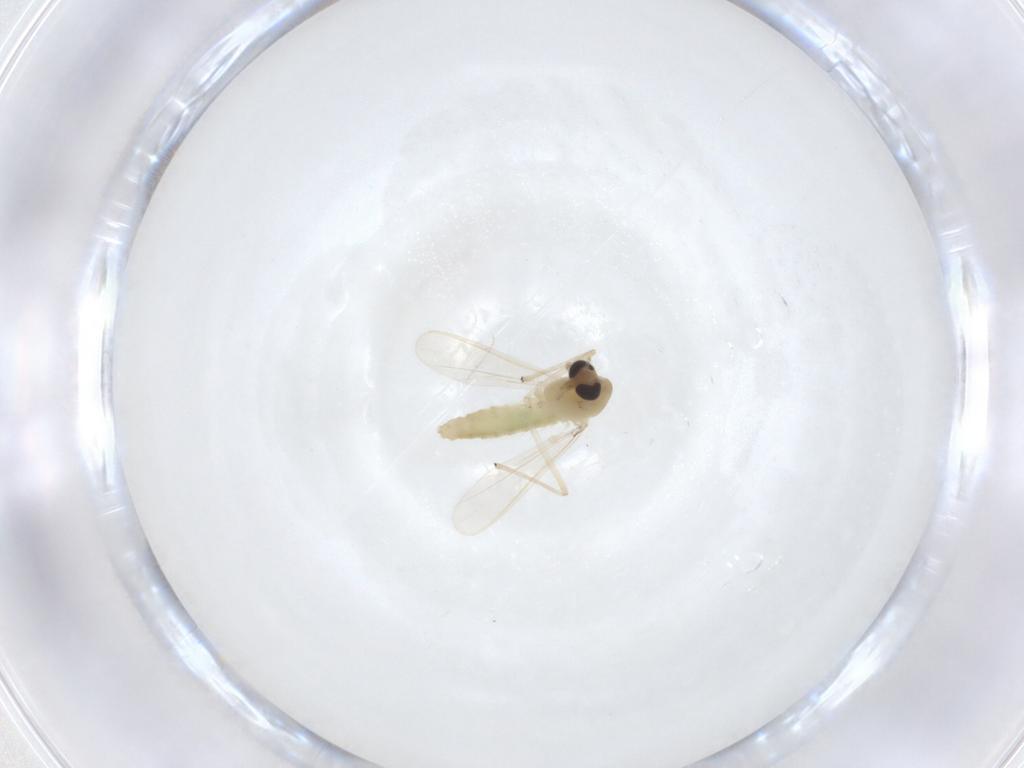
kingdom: Animalia
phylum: Arthropoda
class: Insecta
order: Diptera
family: Chironomidae
